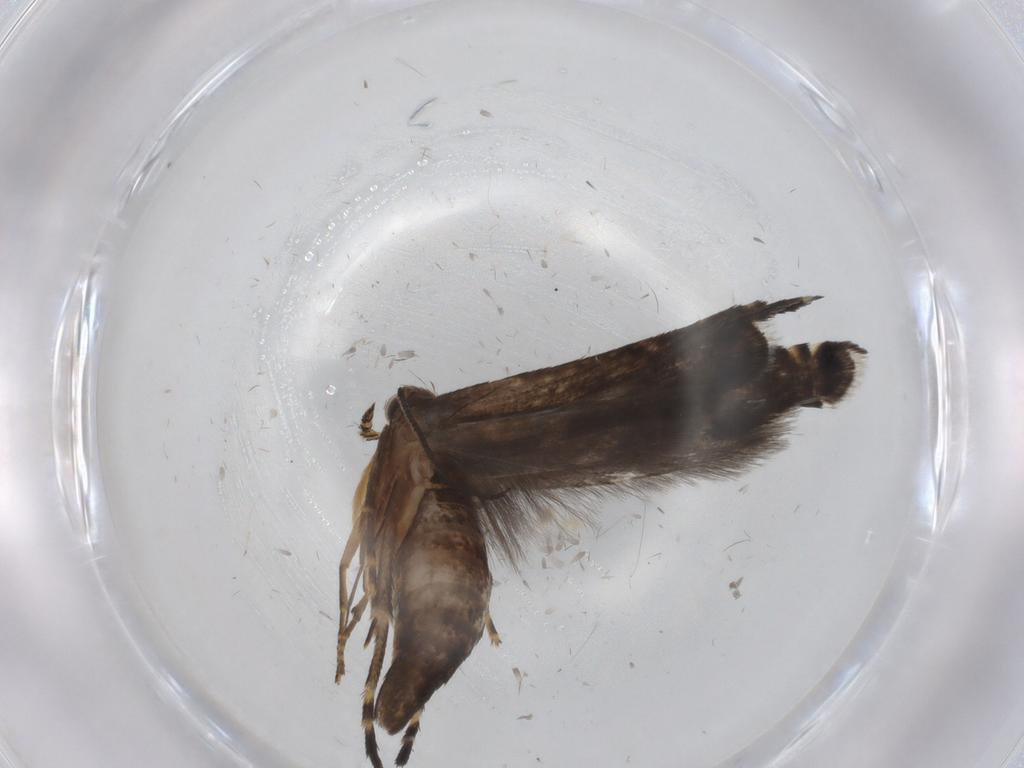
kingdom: Animalia
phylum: Arthropoda
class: Insecta
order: Lepidoptera
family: Glyphipterigidae
